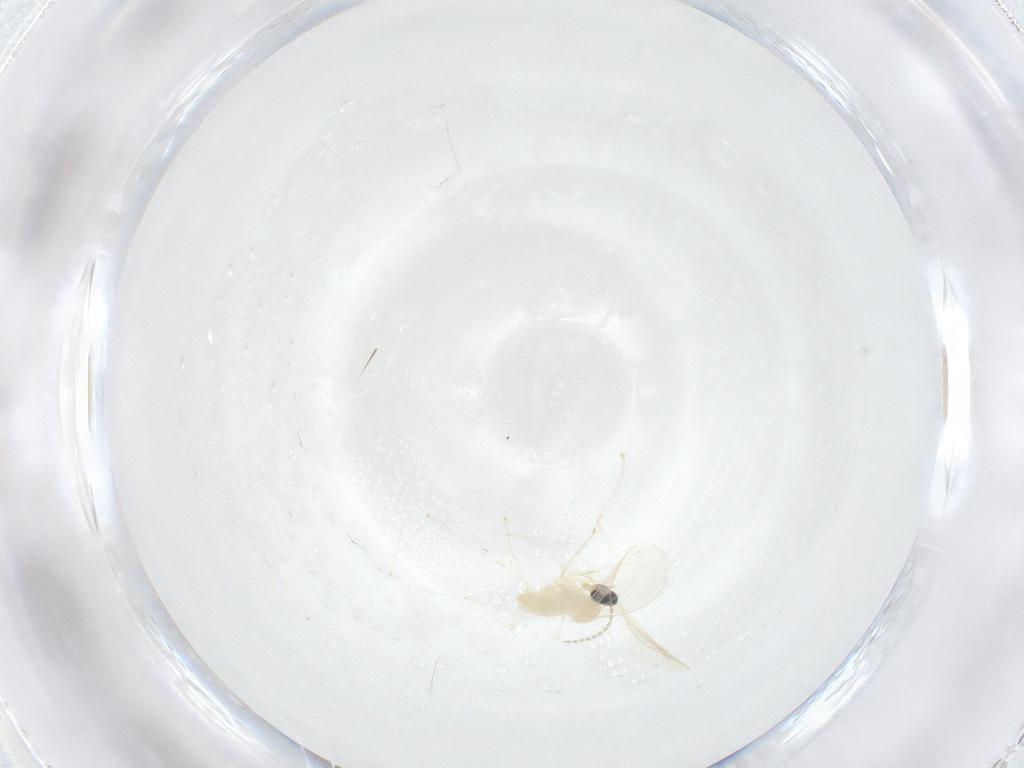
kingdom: Animalia
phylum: Arthropoda
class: Insecta
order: Diptera
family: Cecidomyiidae
